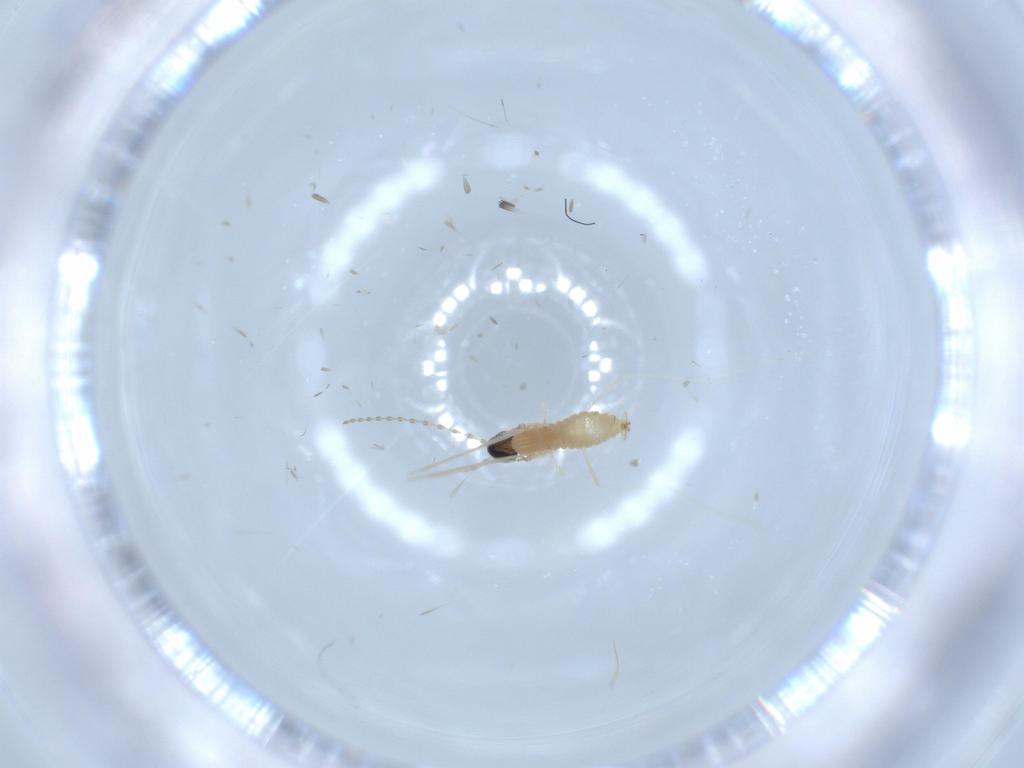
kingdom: Animalia
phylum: Arthropoda
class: Insecta
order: Diptera
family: Cecidomyiidae
